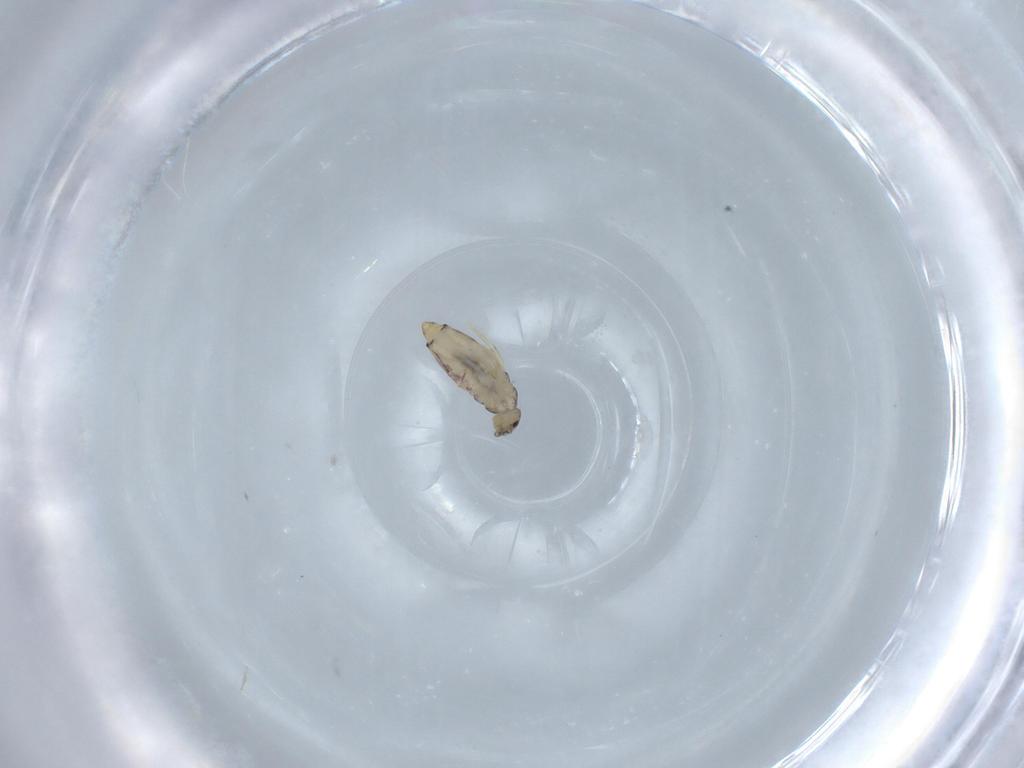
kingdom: Animalia
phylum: Arthropoda
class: Collembola
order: Entomobryomorpha
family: Entomobryidae
